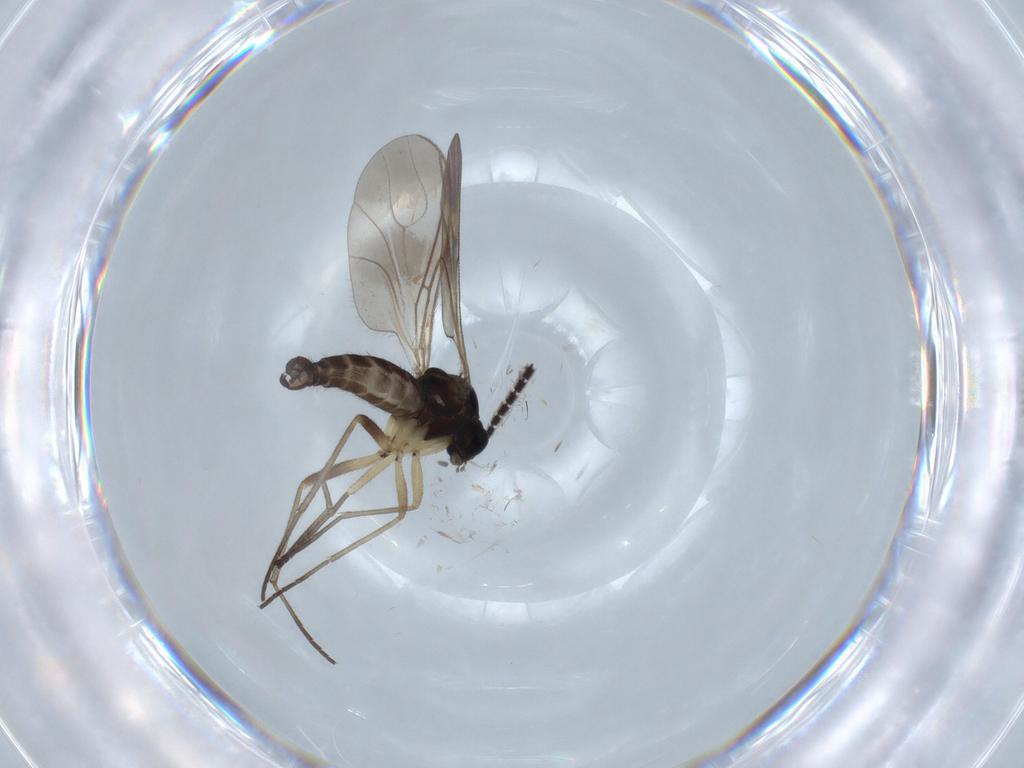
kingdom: Animalia
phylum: Arthropoda
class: Insecta
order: Diptera
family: Sciaridae
